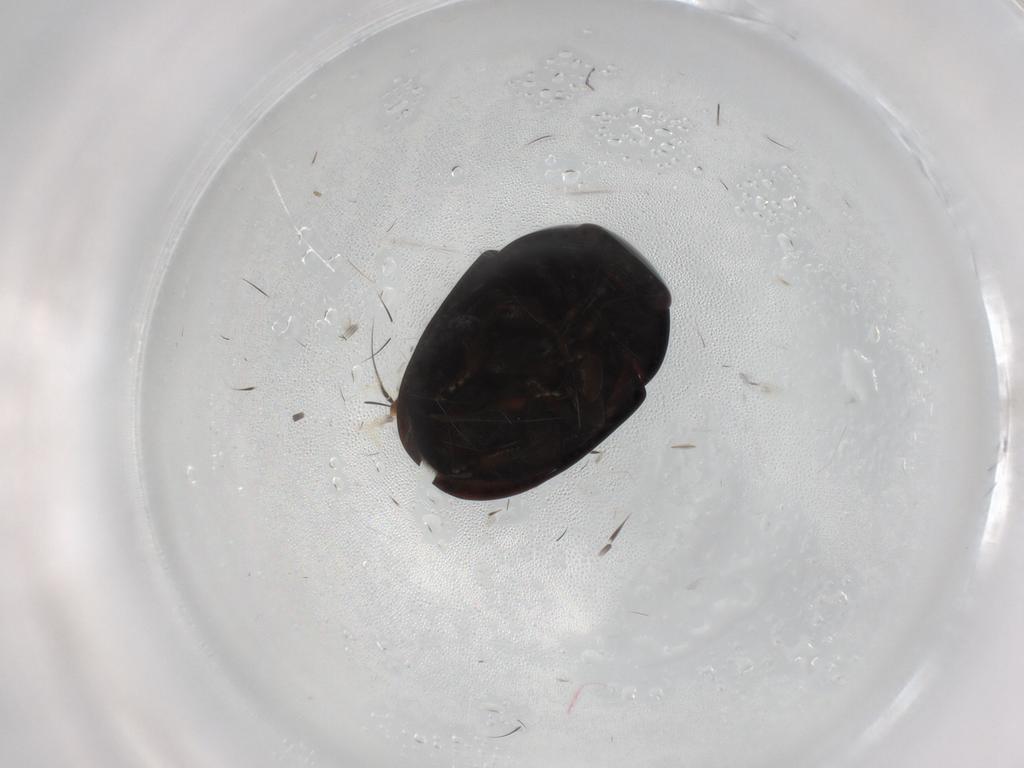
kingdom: Animalia
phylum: Arthropoda
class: Insecta
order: Diptera
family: Anthomyiidae
